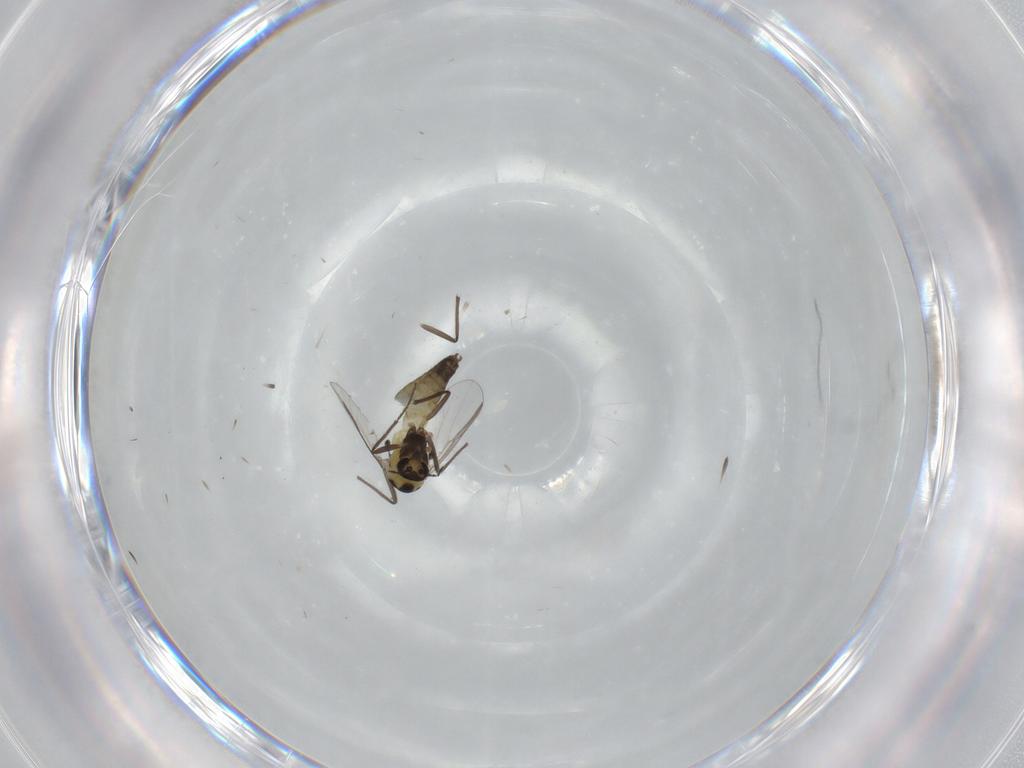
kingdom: Animalia
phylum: Arthropoda
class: Insecta
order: Diptera
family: Chironomidae
